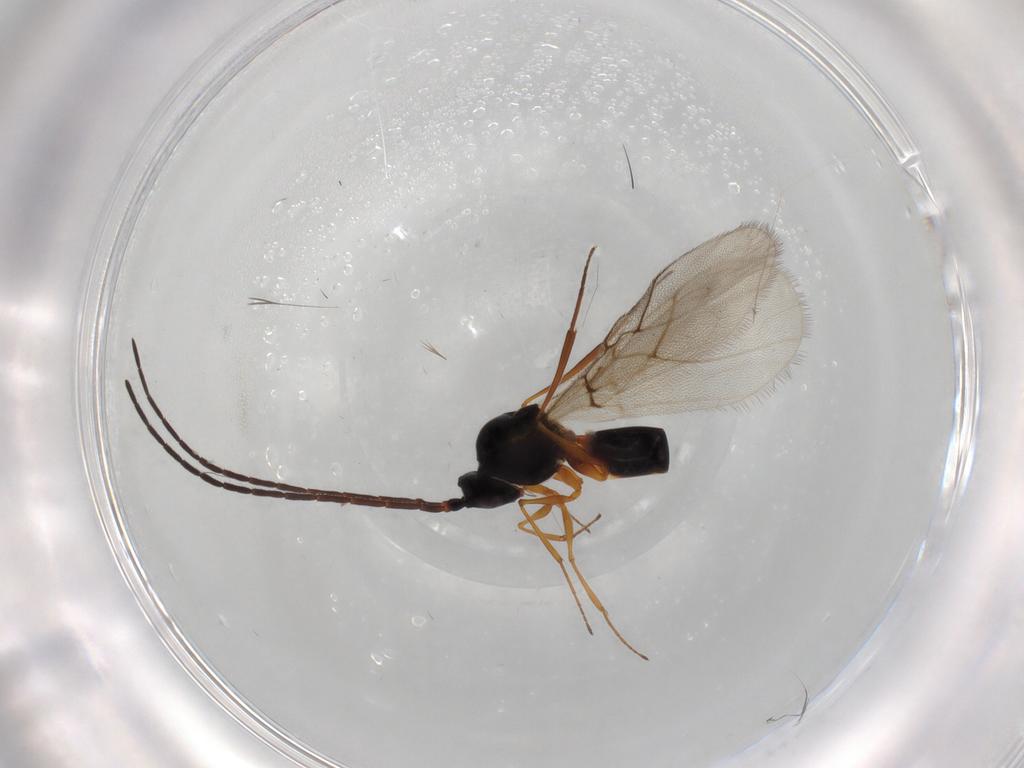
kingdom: Animalia
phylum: Arthropoda
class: Insecta
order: Hymenoptera
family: Figitidae
